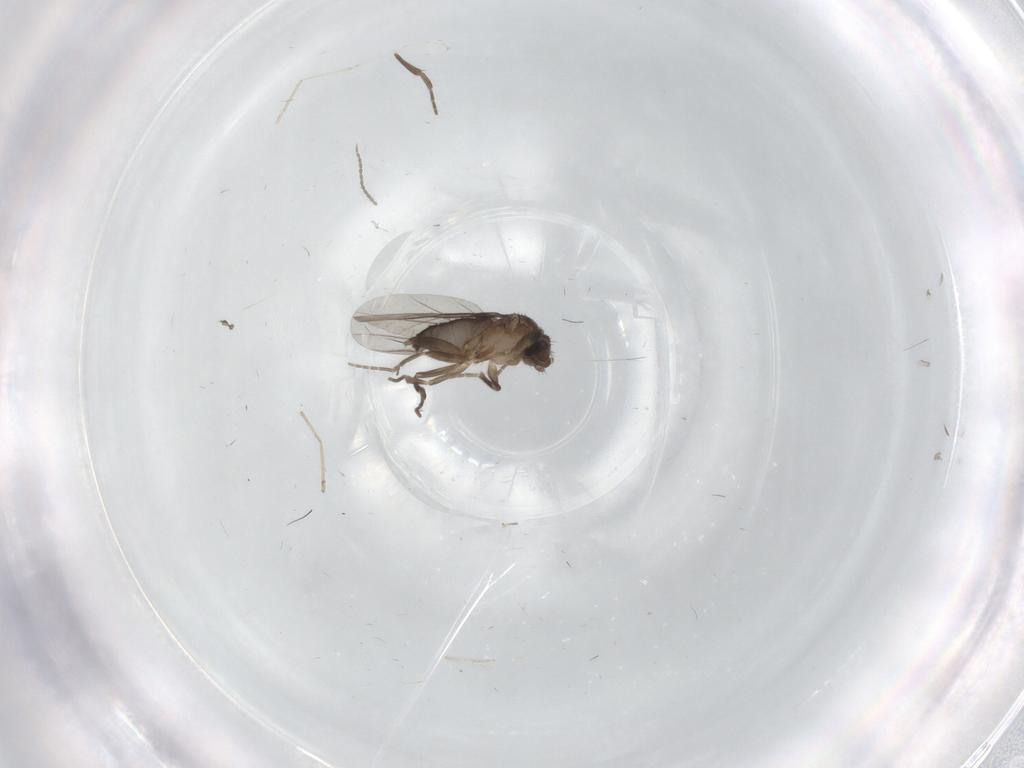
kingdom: Animalia
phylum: Arthropoda
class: Insecta
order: Diptera
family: Cecidomyiidae
